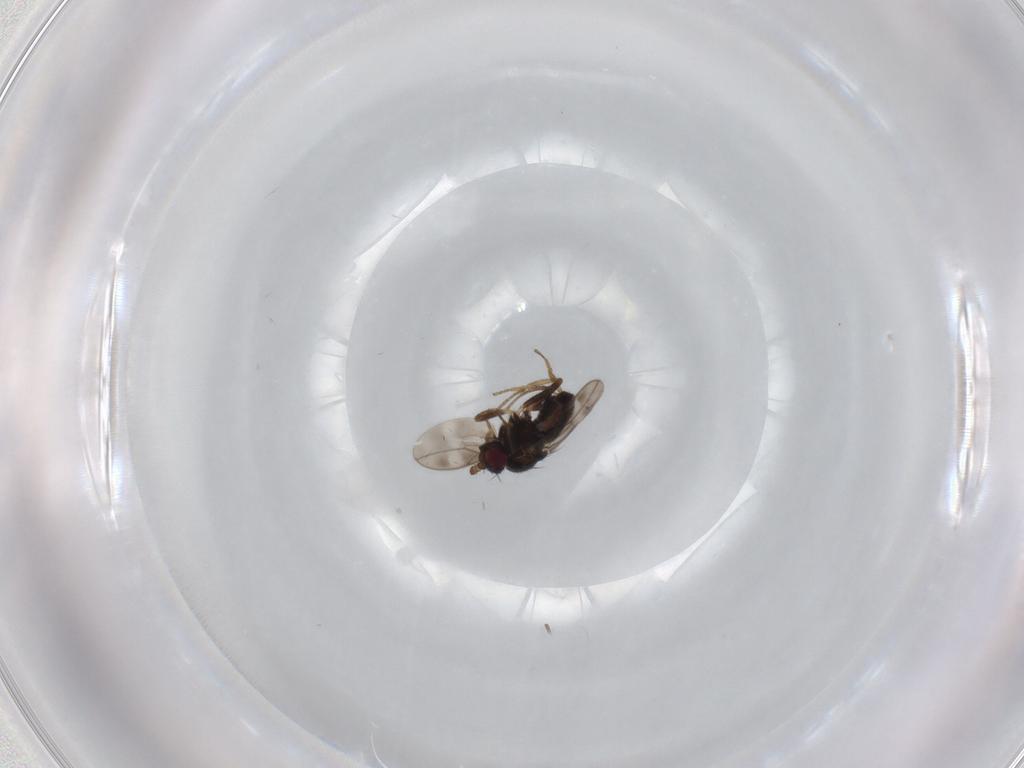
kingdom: Animalia
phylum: Arthropoda
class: Insecta
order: Diptera
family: Sphaeroceridae
